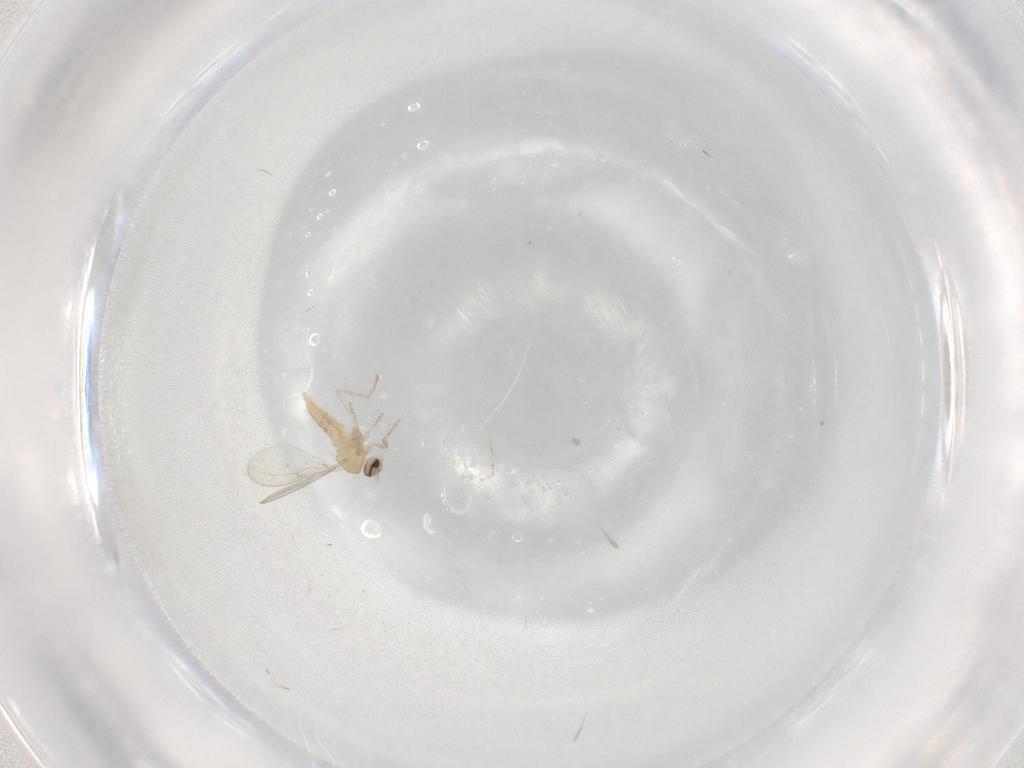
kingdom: Animalia
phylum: Arthropoda
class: Insecta
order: Diptera
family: Cecidomyiidae
